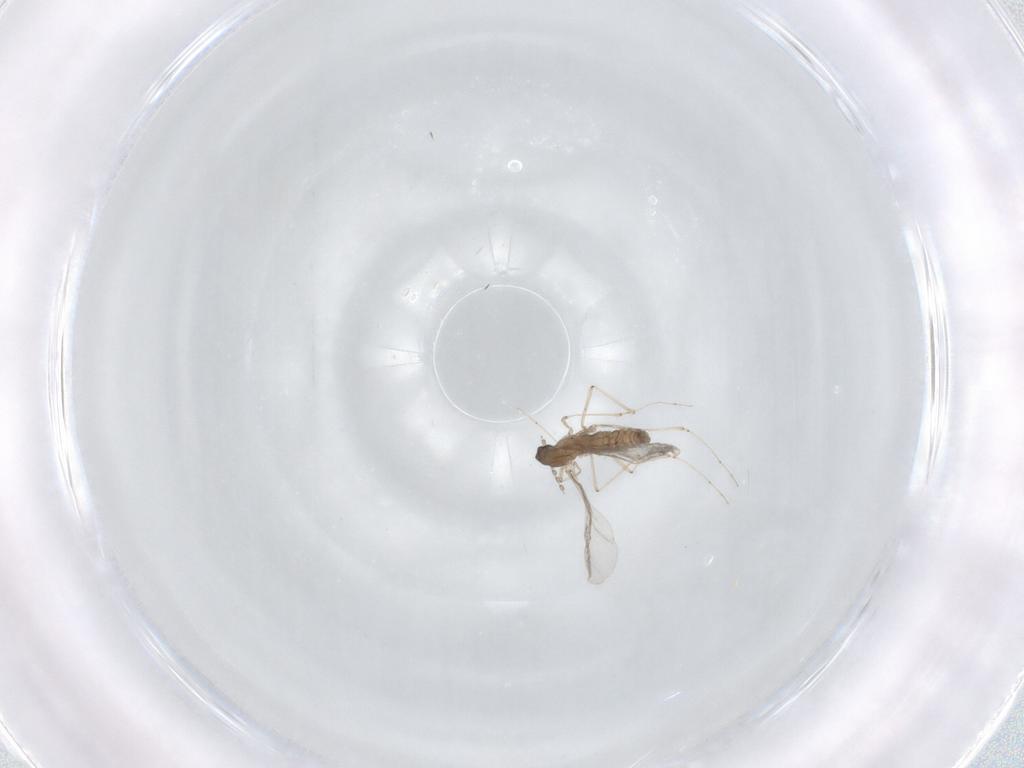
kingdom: Animalia
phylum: Arthropoda
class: Insecta
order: Diptera
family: Cecidomyiidae
